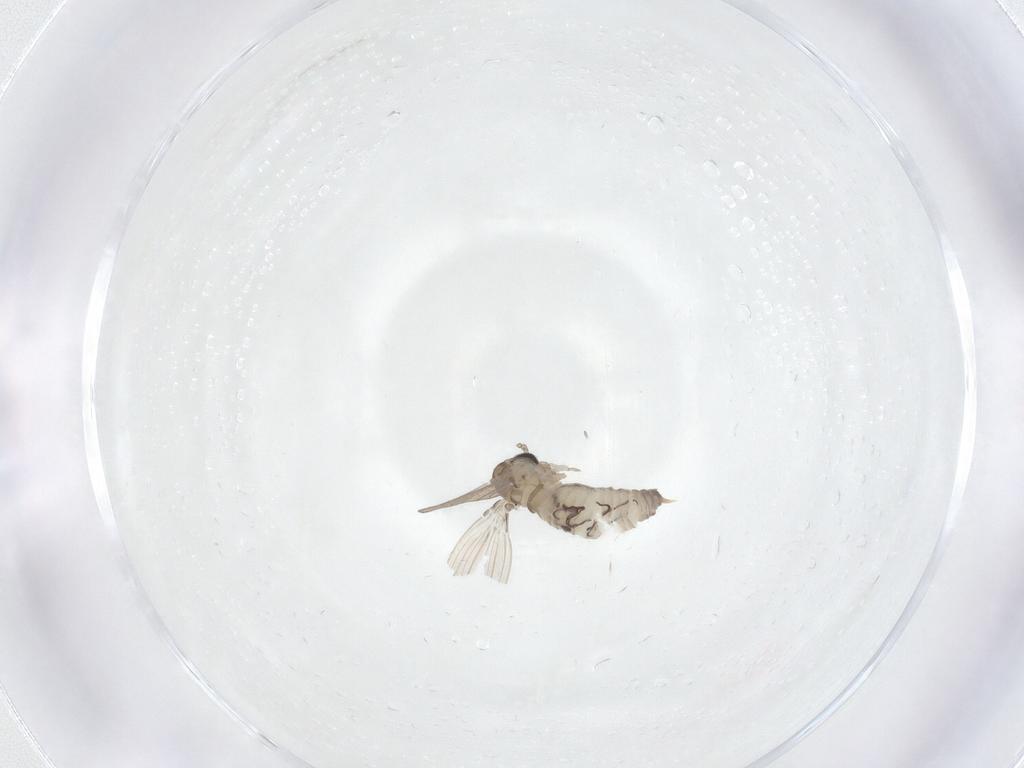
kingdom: Animalia
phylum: Arthropoda
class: Insecta
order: Diptera
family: Psychodidae
